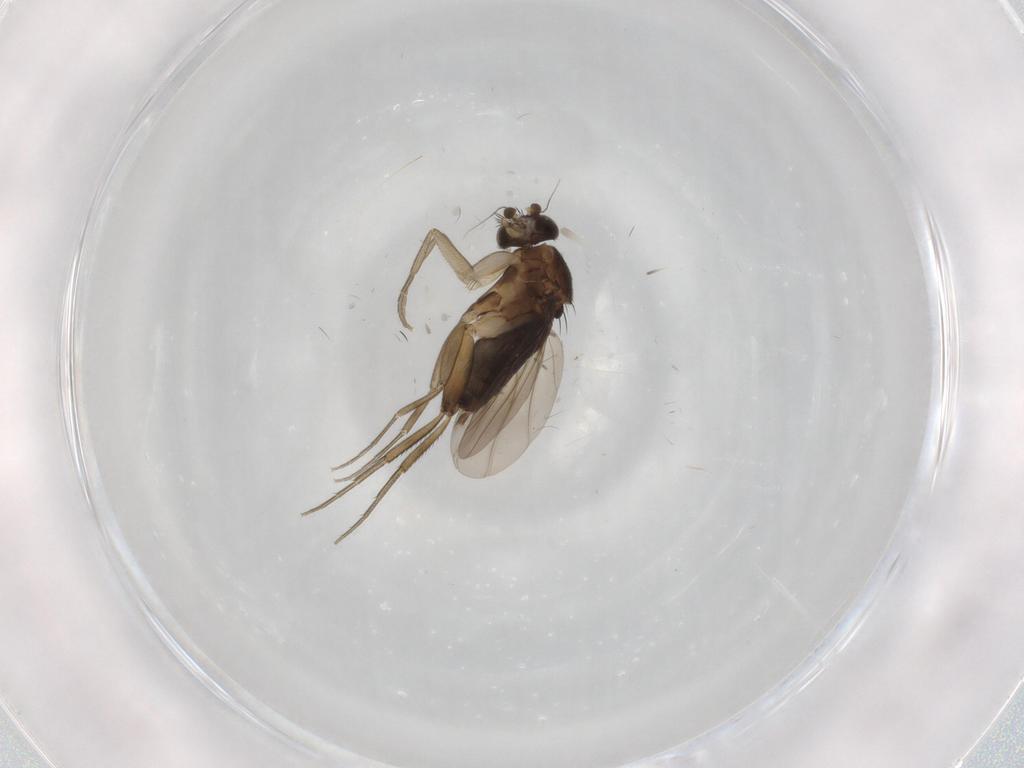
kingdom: Animalia
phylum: Arthropoda
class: Insecta
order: Diptera
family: Phoridae
